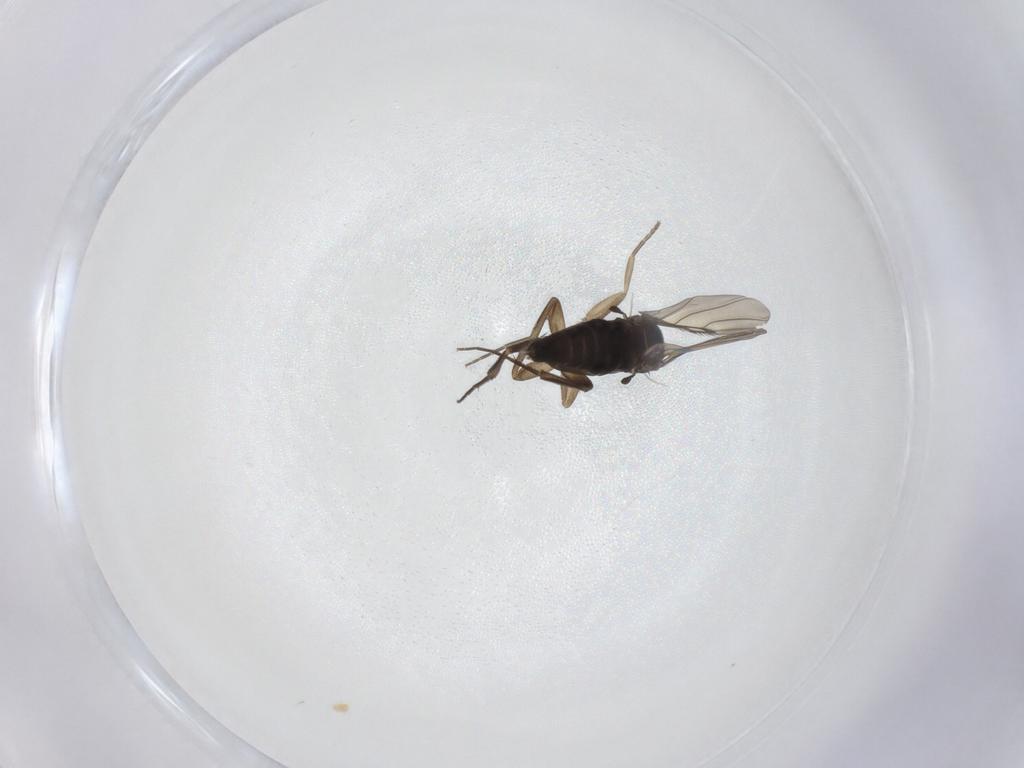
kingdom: Animalia
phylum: Arthropoda
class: Insecta
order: Diptera
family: Phoridae
